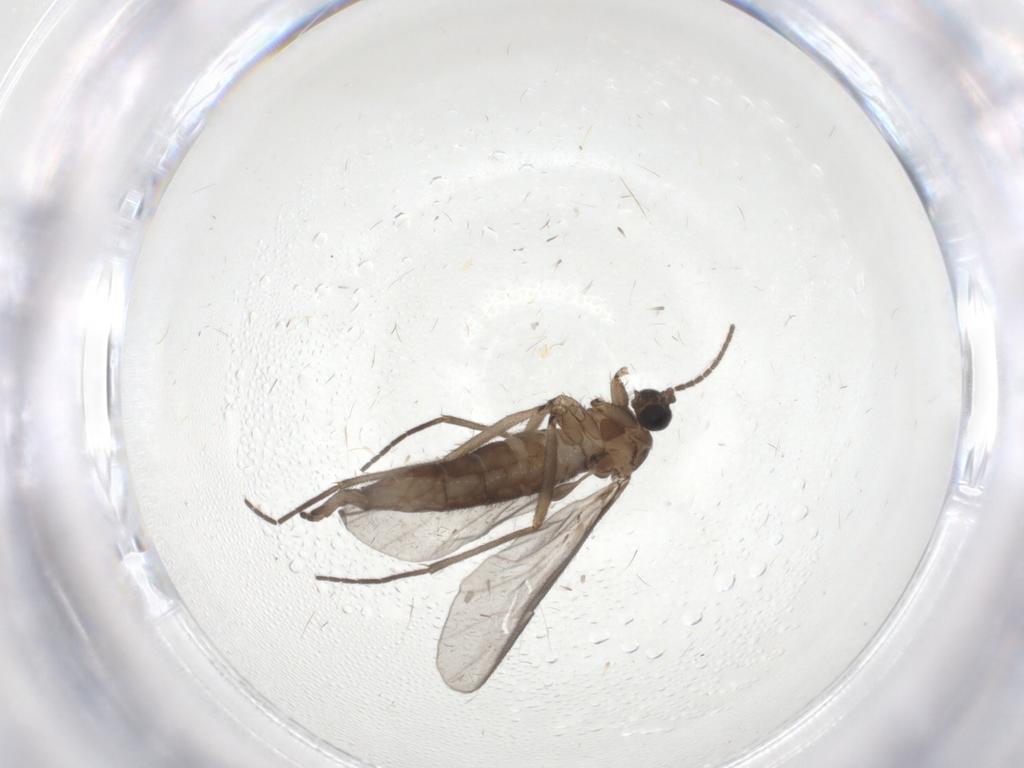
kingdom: Animalia
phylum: Arthropoda
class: Insecta
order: Diptera
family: Sciaridae
